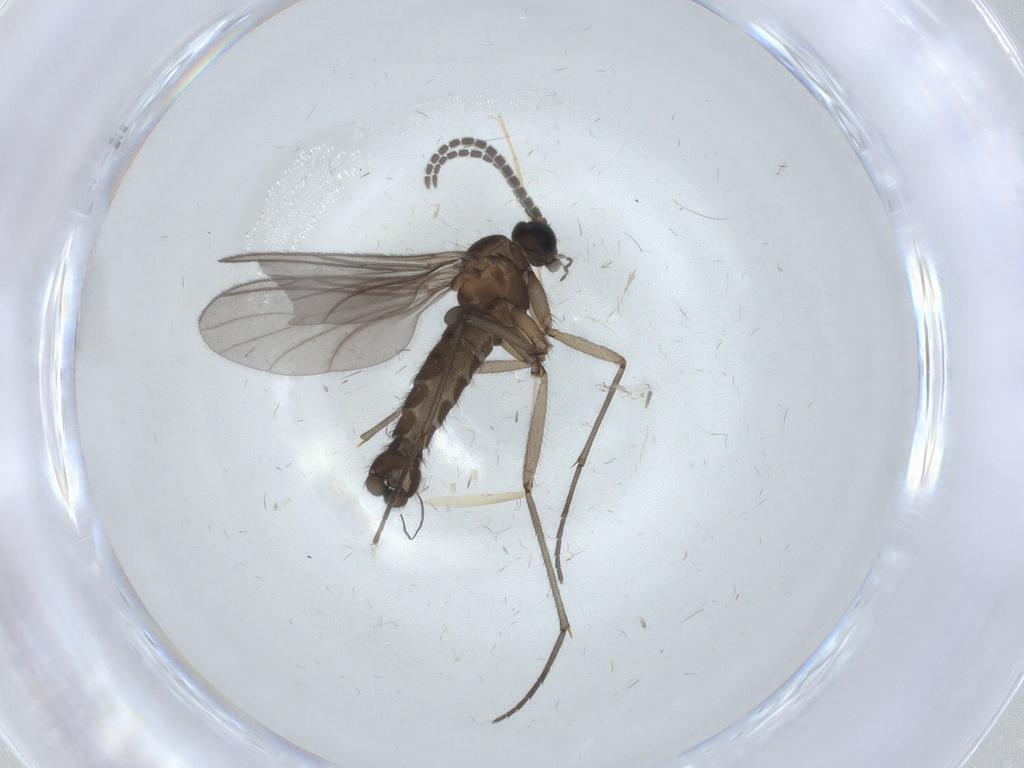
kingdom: Animalia
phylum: Arthropoda
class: Insecta
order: Diptera
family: Sciaridae
